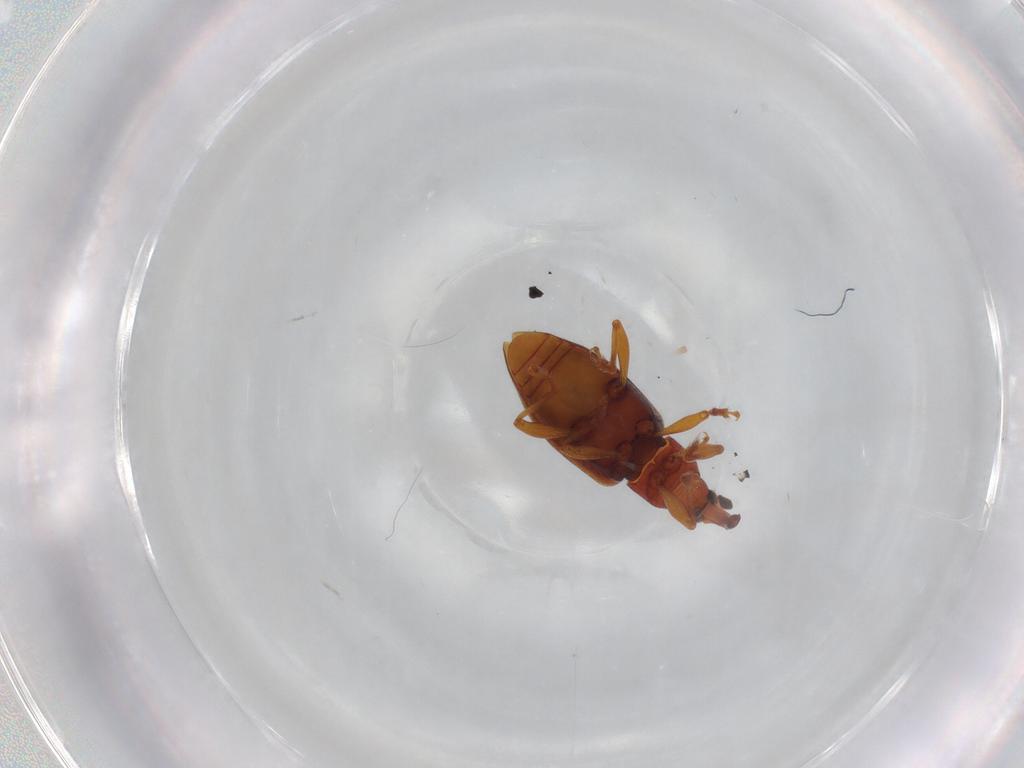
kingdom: Animalia
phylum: Arthropoda
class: Insecta
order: Coleoptera
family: Curculionidae
